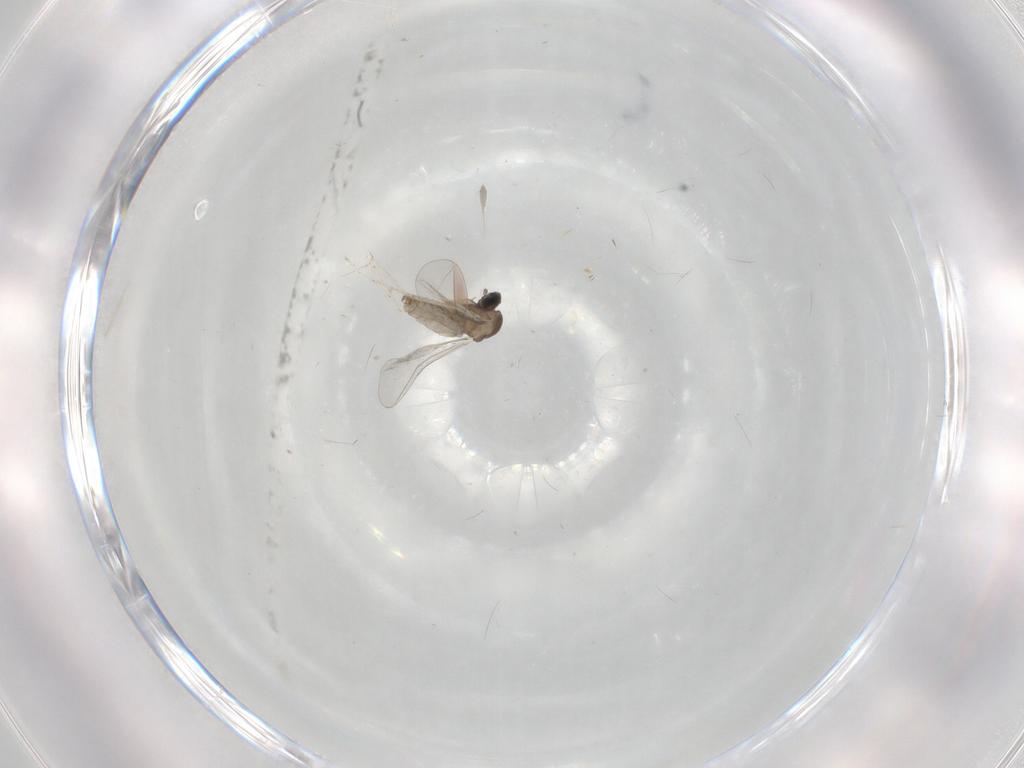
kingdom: Animalia
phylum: Arthropoda
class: Insecta
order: Diptera
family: Cecidomyiidae
